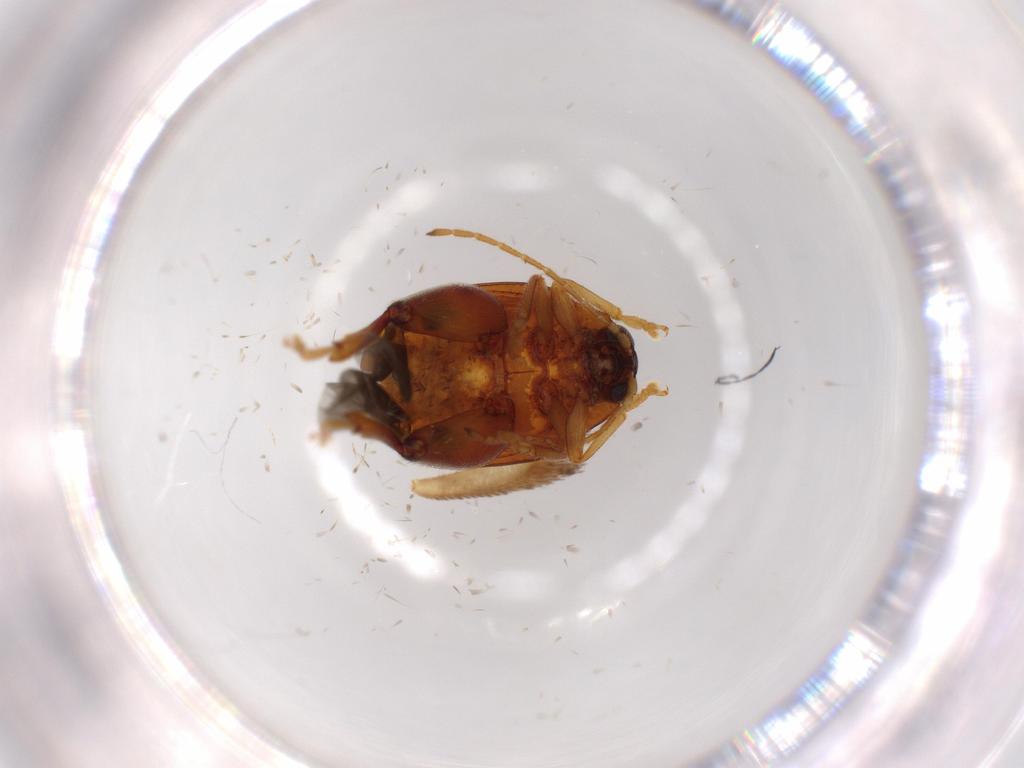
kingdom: Animalia
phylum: Arthropoda
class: Insecta
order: Coleoptera
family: Chrysomelidae
